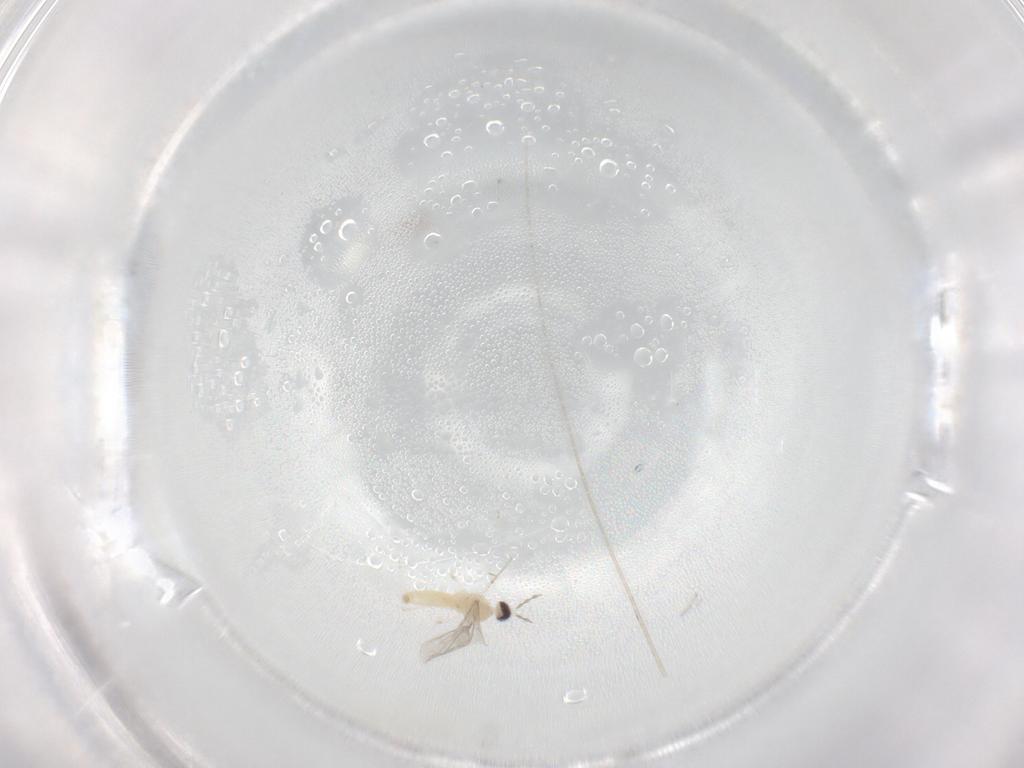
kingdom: Animalia
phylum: Arthropoda
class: Insecta
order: Diptera
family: Cecidomyiidae
